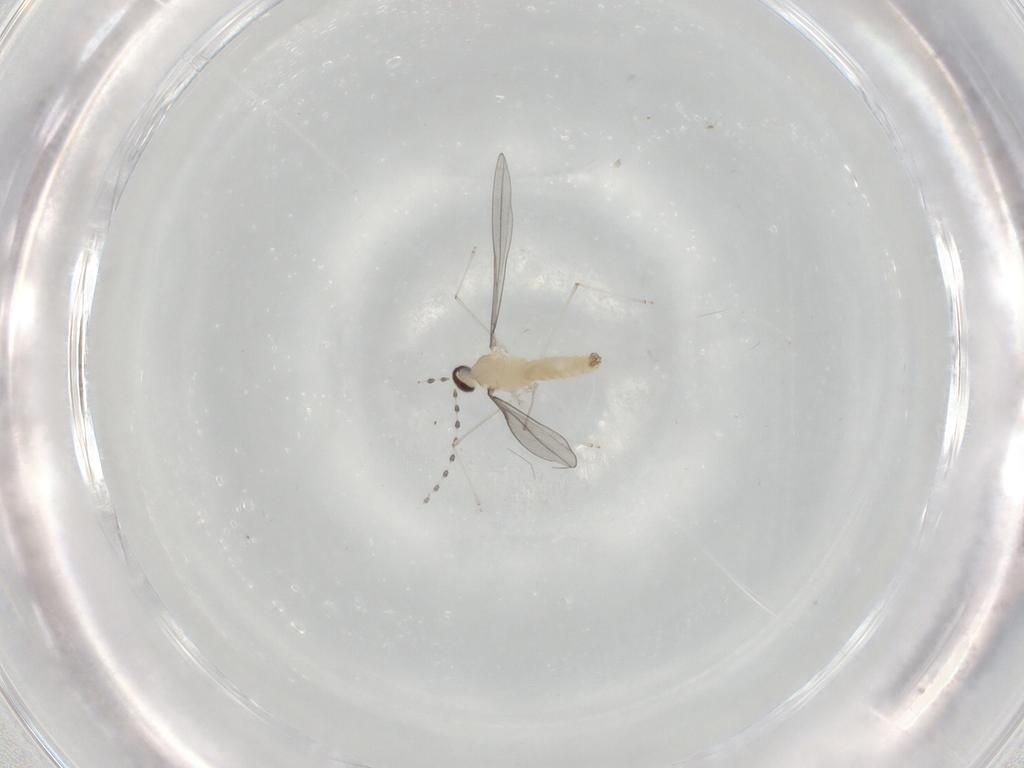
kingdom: Animalia
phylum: Arthropoda
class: Insecta
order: Diptera
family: Cecidomyiidae
